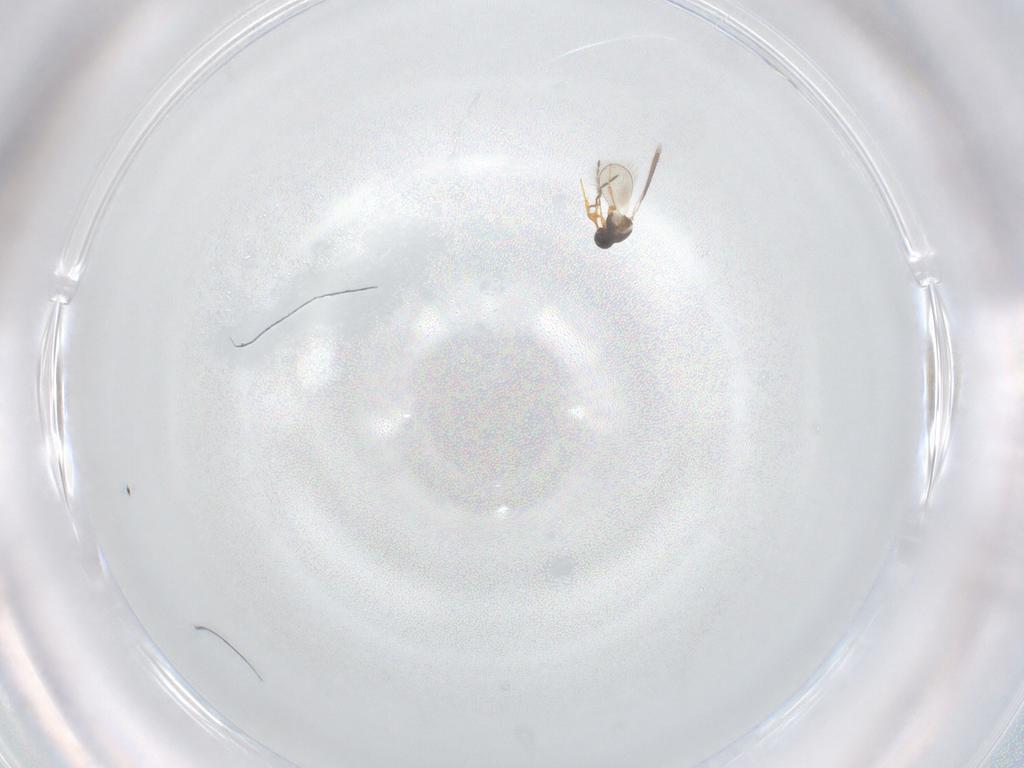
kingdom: Animalia
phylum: Arthropoda
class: Insecta
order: Hymenoptera
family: Platygastridae
